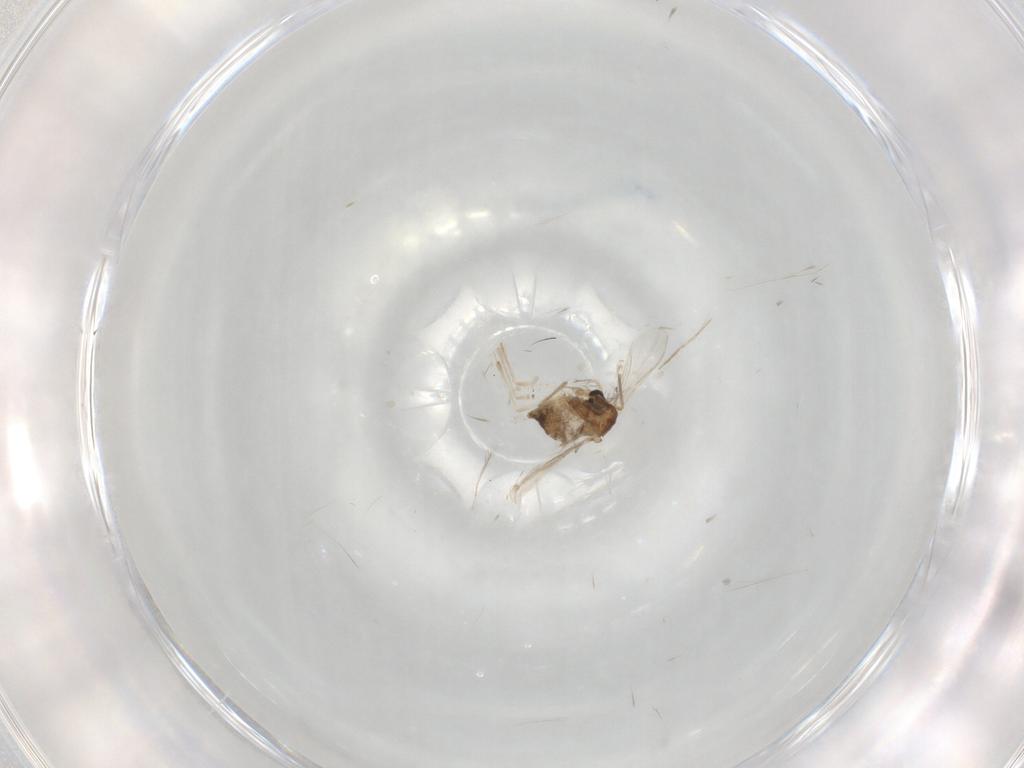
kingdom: Animalia
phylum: Arthropoda
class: Insecta
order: Diptera
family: Chironomidae
